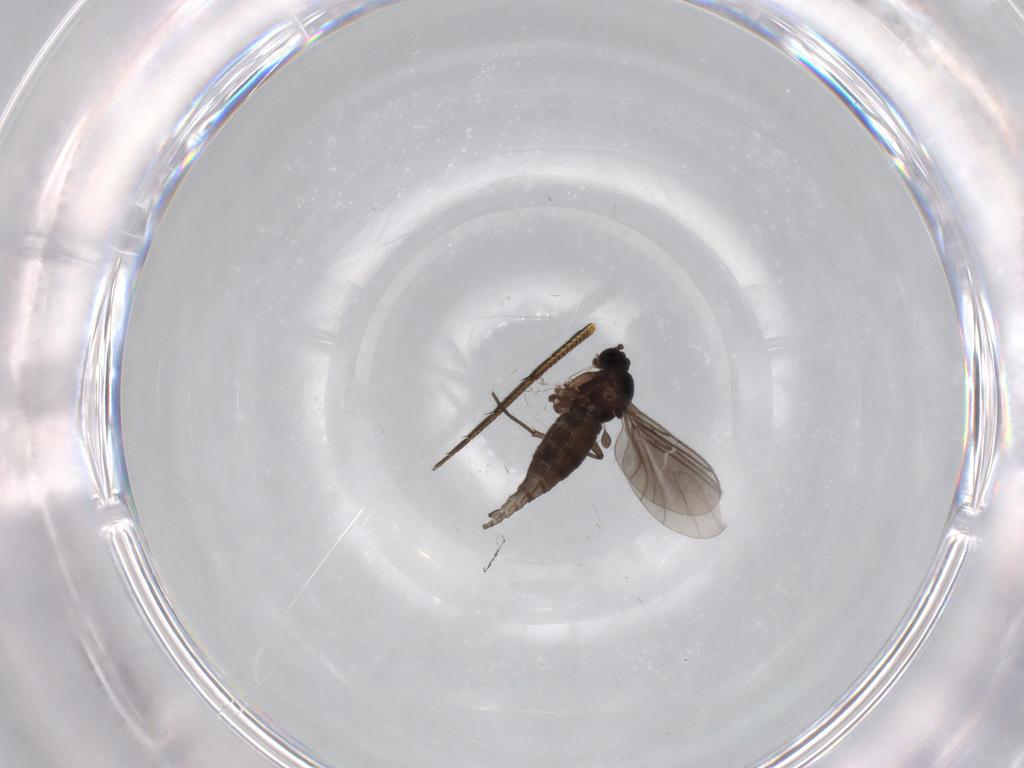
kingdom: Animalia
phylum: Arthropoda
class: Insecta
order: Diptera
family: Sciaridae
